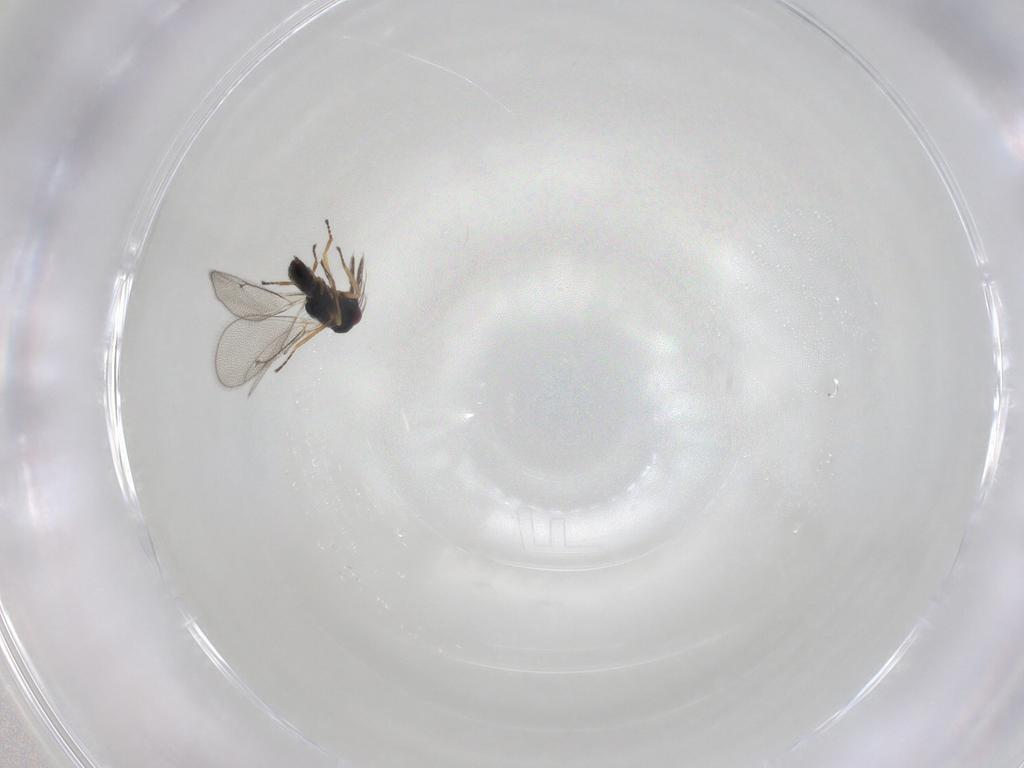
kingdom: Animalia
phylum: Arthropoda
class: Insecta
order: Hymenoptera
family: Eulophidae
